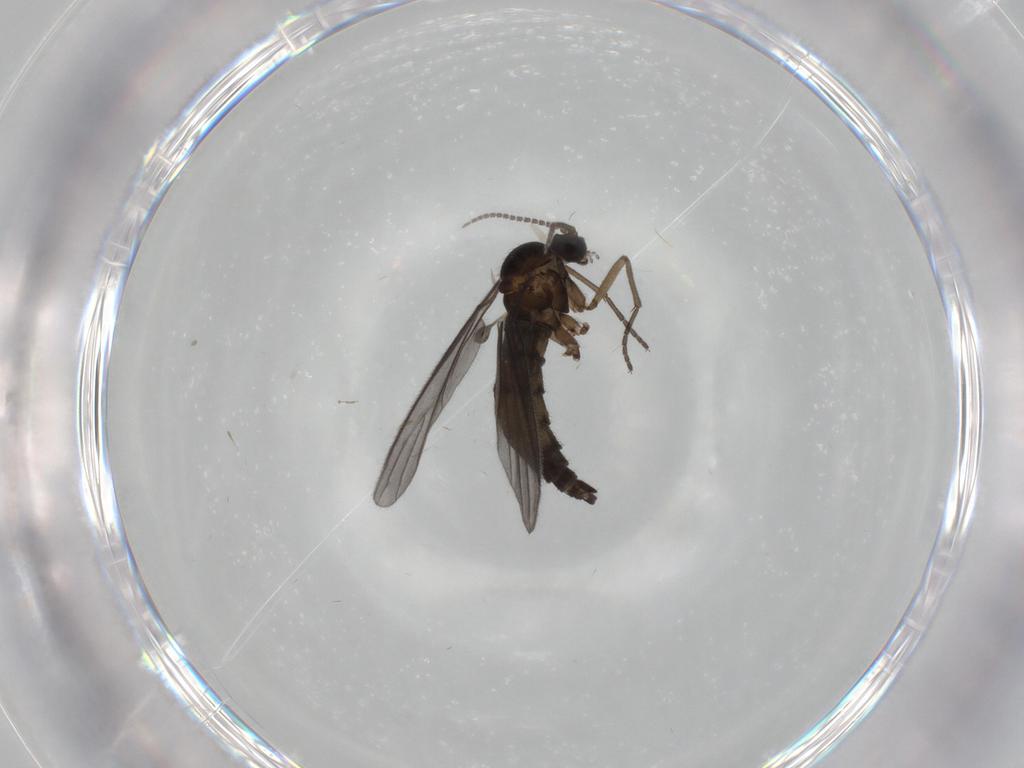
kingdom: Animalia
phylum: Arthropoda
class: Insecta
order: Diptera
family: Sciaridae
